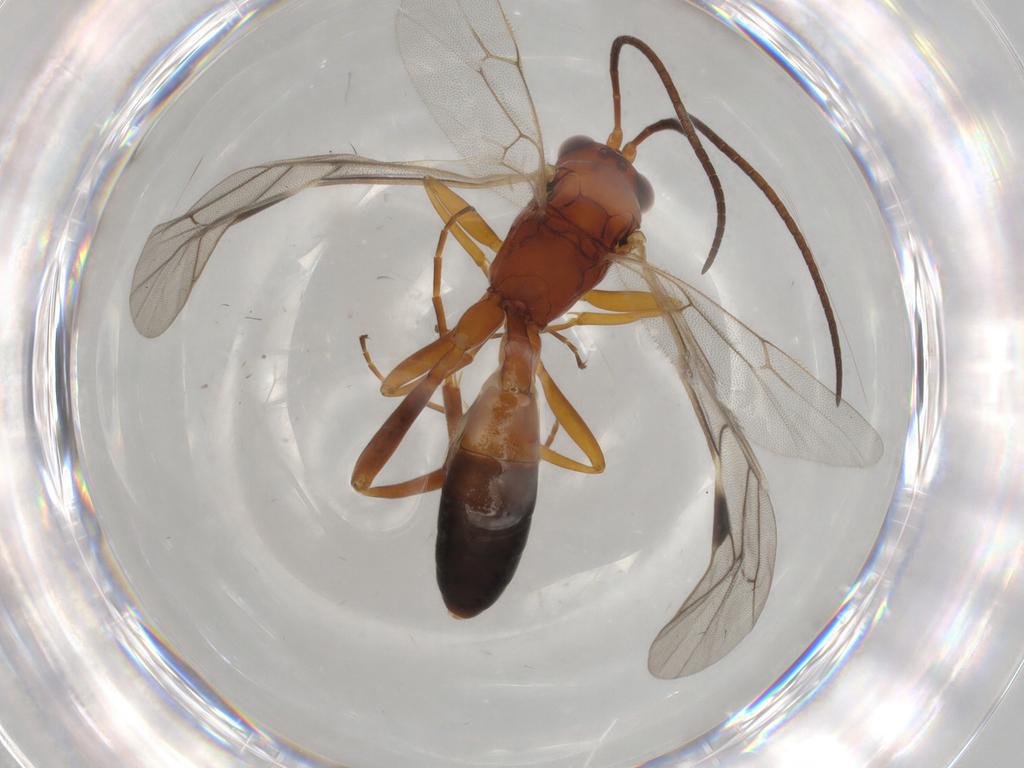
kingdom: Animalia
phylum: Arthropoda
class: Insecta
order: Hymenoptera
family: Ichneumonidae
